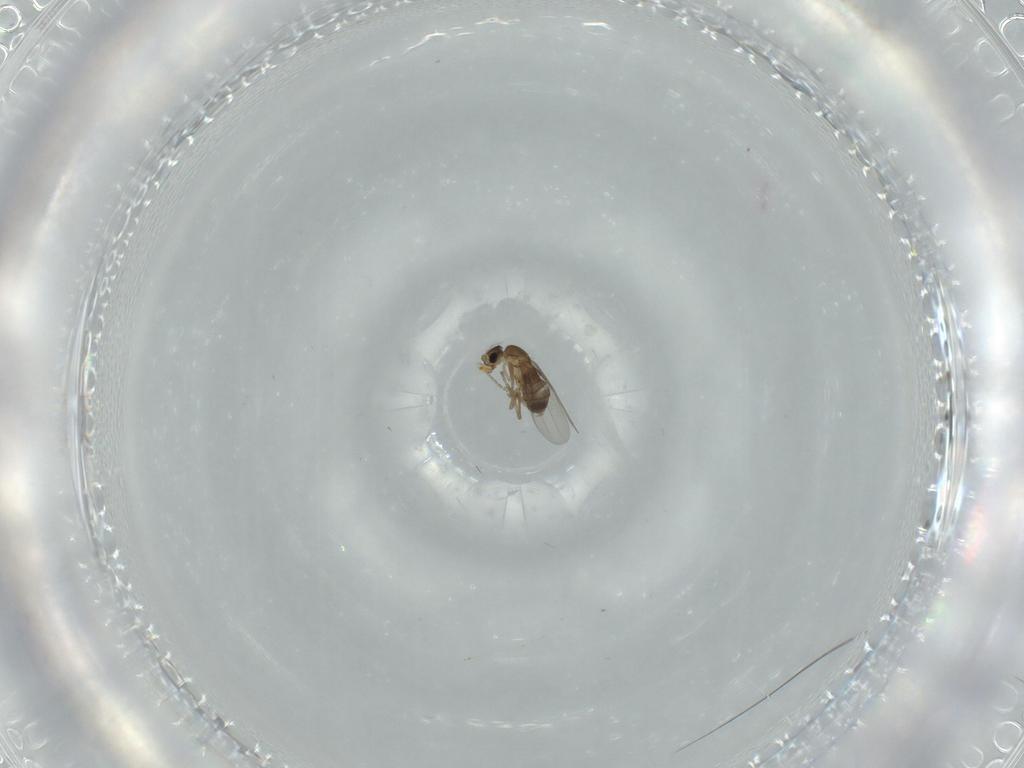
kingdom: Animalia
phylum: Arthropoda
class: Insecta
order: Diptera
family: Phoridae
